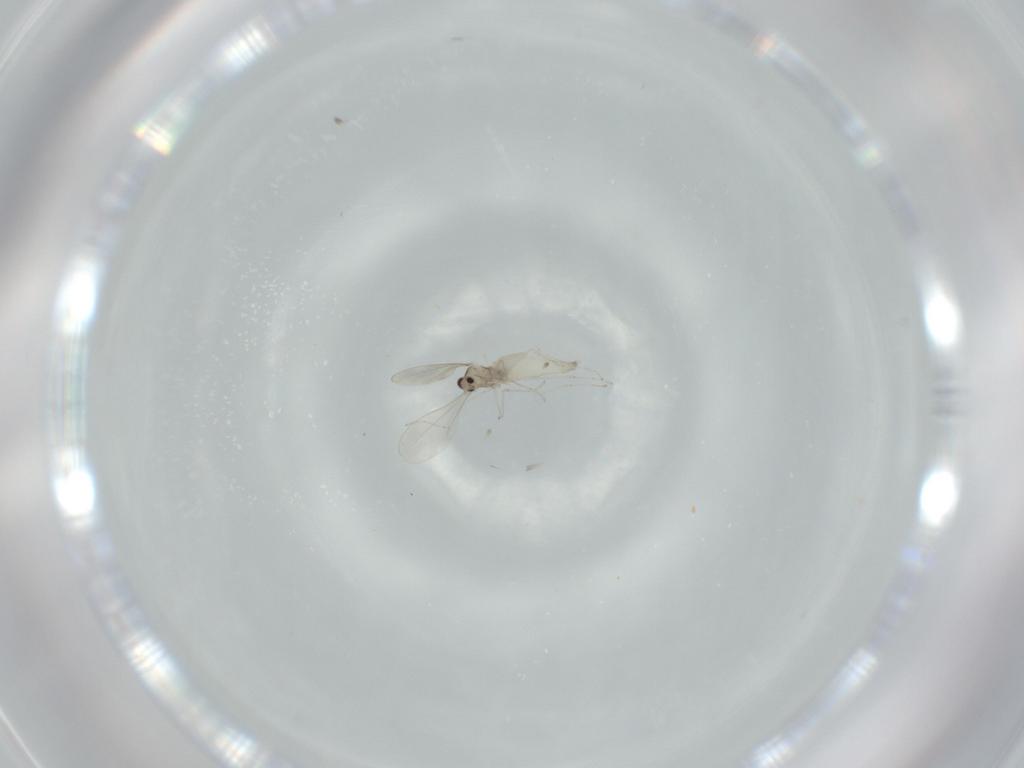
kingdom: Animalia
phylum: Arthropoda
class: Insecta
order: Diptera
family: Cecidomyiidae
